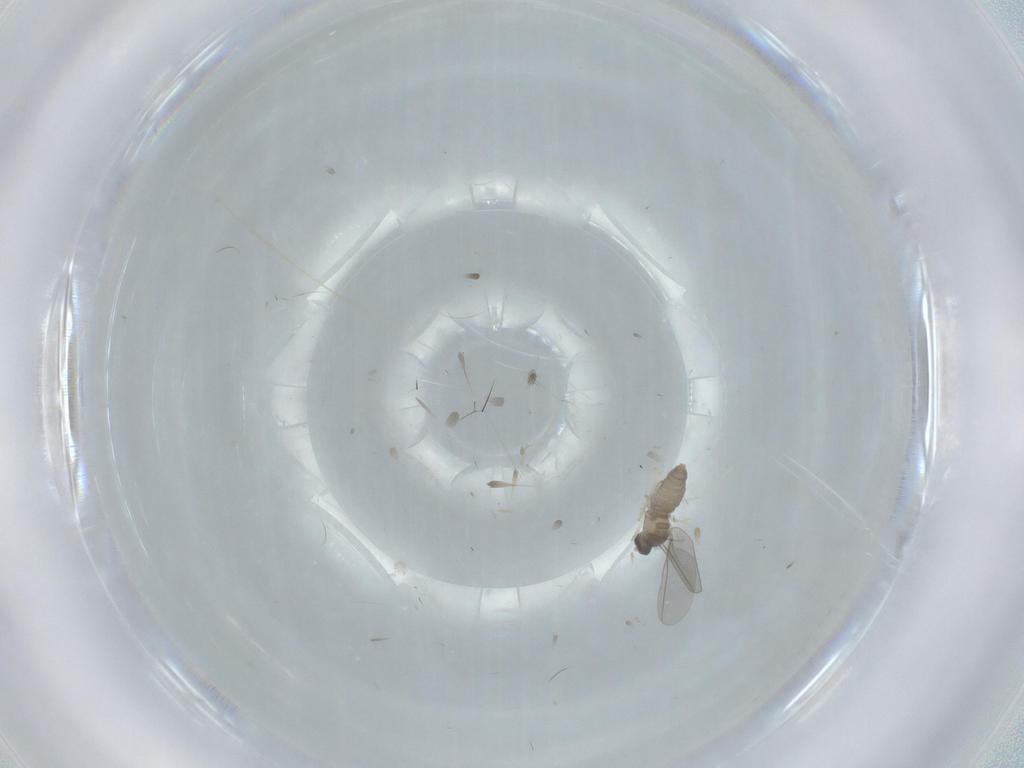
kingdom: Animalia
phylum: Arthropoda
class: Insecta
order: Diptera
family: Cecidomyiidae
